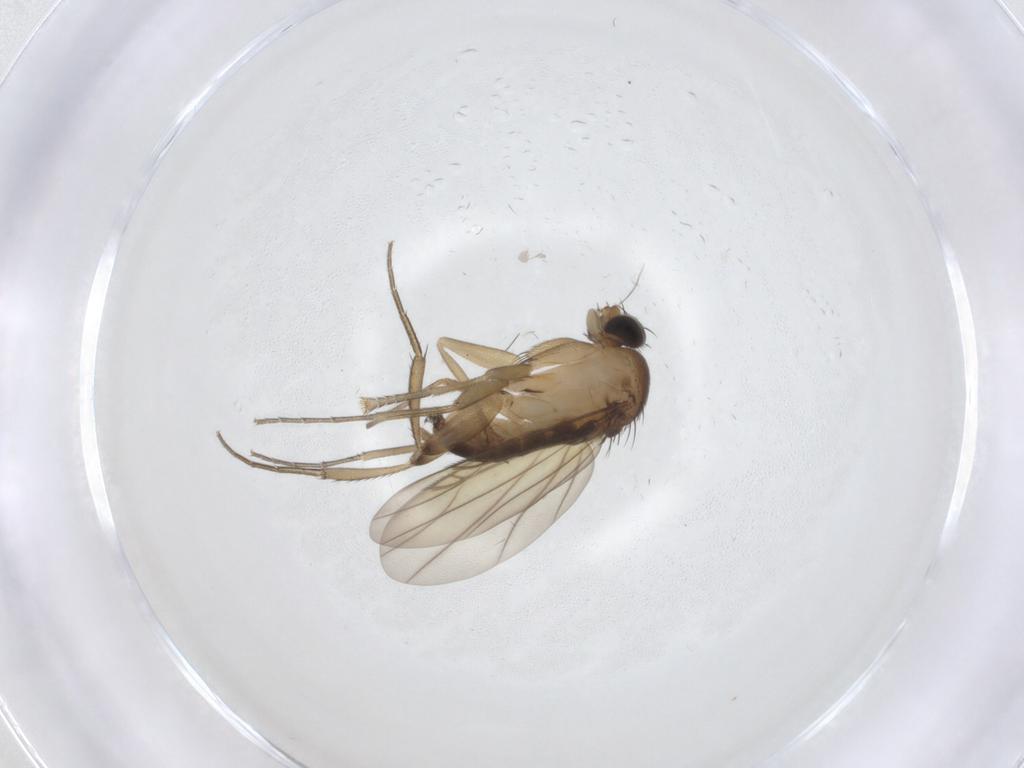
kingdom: Animalia
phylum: Arthropoda
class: Insecta
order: Diptera
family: Phoridae
